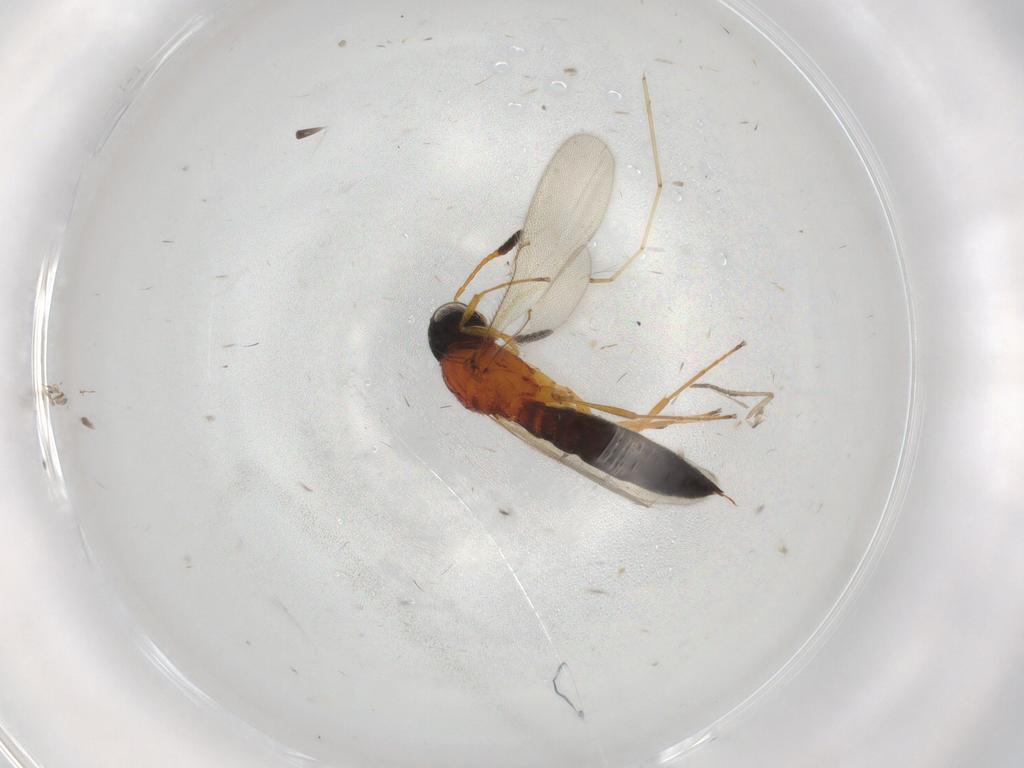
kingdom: Animalia
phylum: Arthropoda
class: Insecta
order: Hymenoptera
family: Scelionidae
